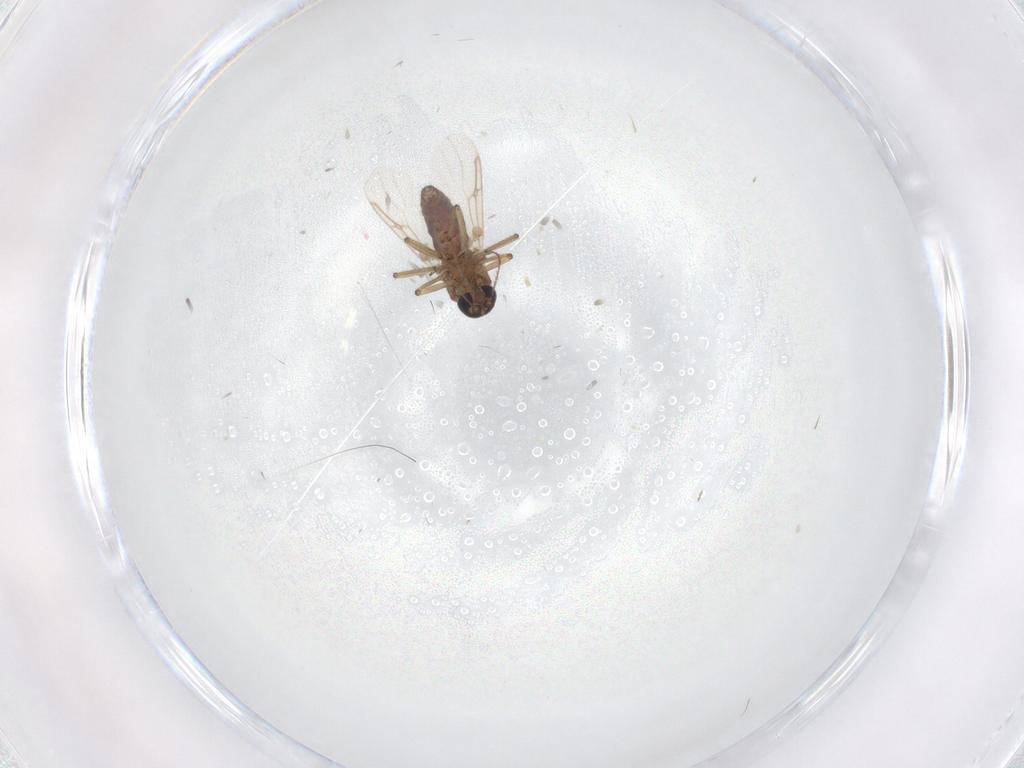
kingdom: Animalia
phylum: Arthropoda
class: Insecta
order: Diptera
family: Ceratopogonidae
